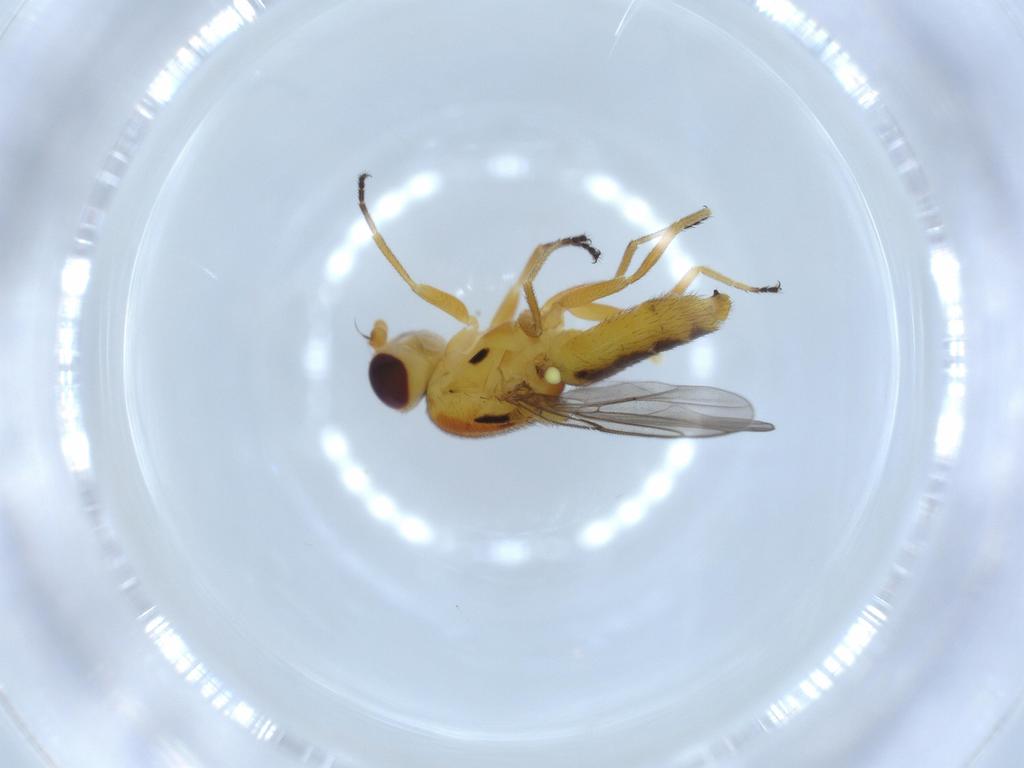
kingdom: Animalia
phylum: Arthropoda
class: Insecta
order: Diptera
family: Chloropidae
